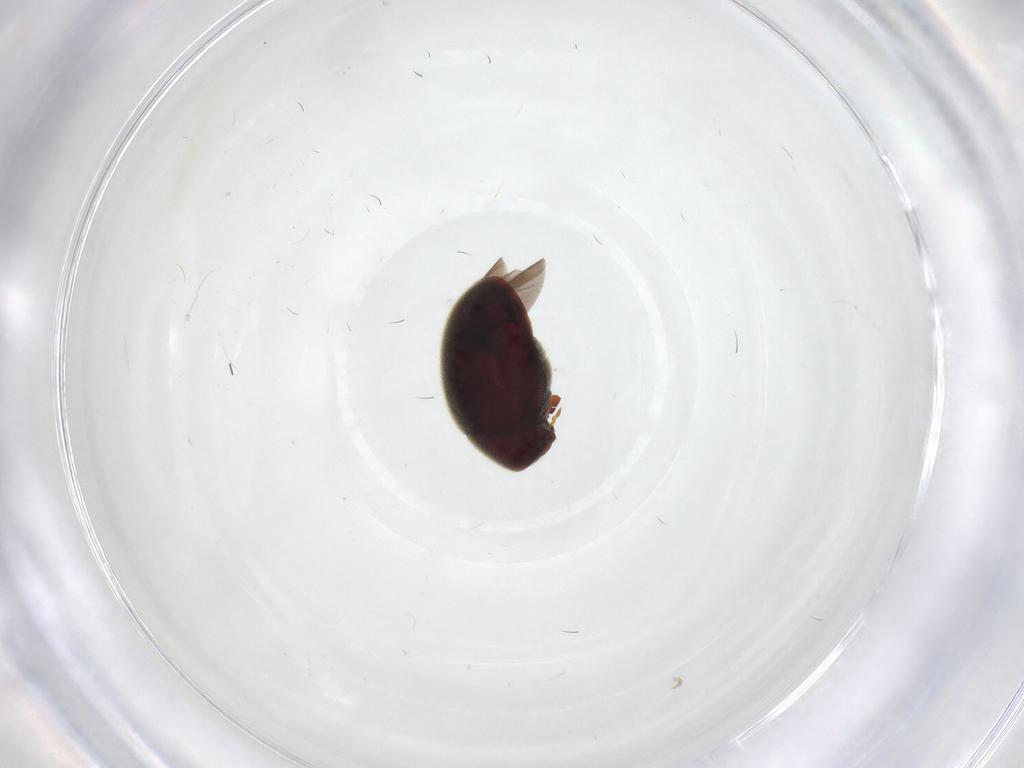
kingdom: Animalia
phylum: Arthropoda
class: Insecta
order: Coleoptera
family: Ptinidae
